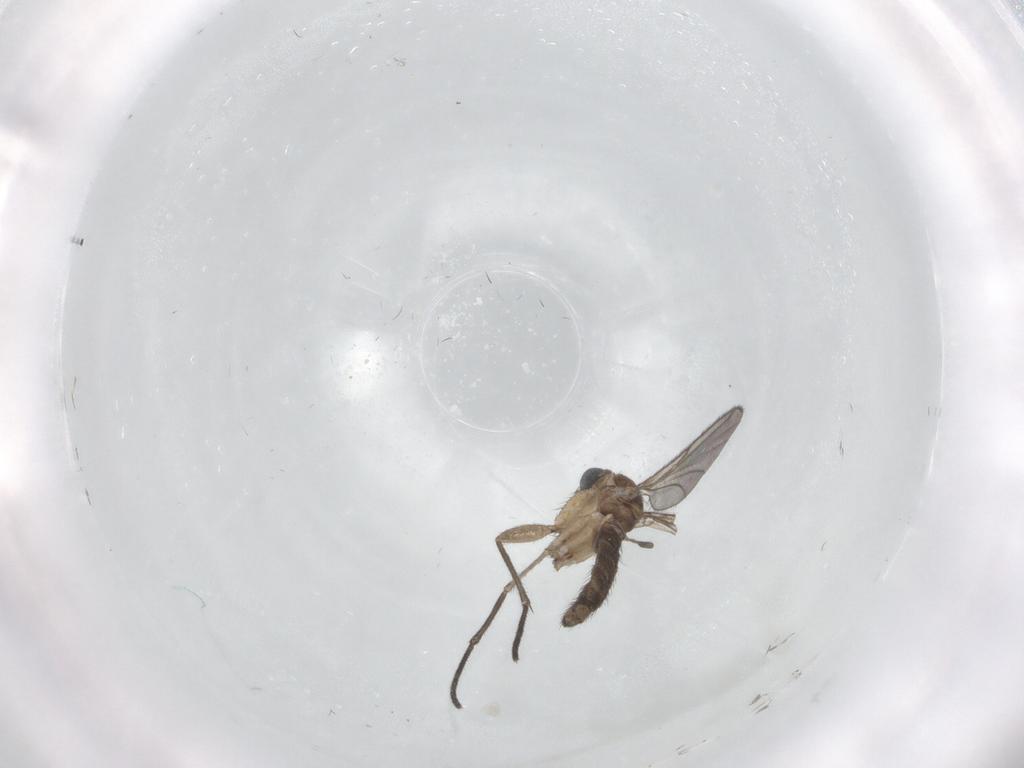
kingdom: Animalia
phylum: Arthropoda
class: Insecta
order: Diptera
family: Sciaridae
